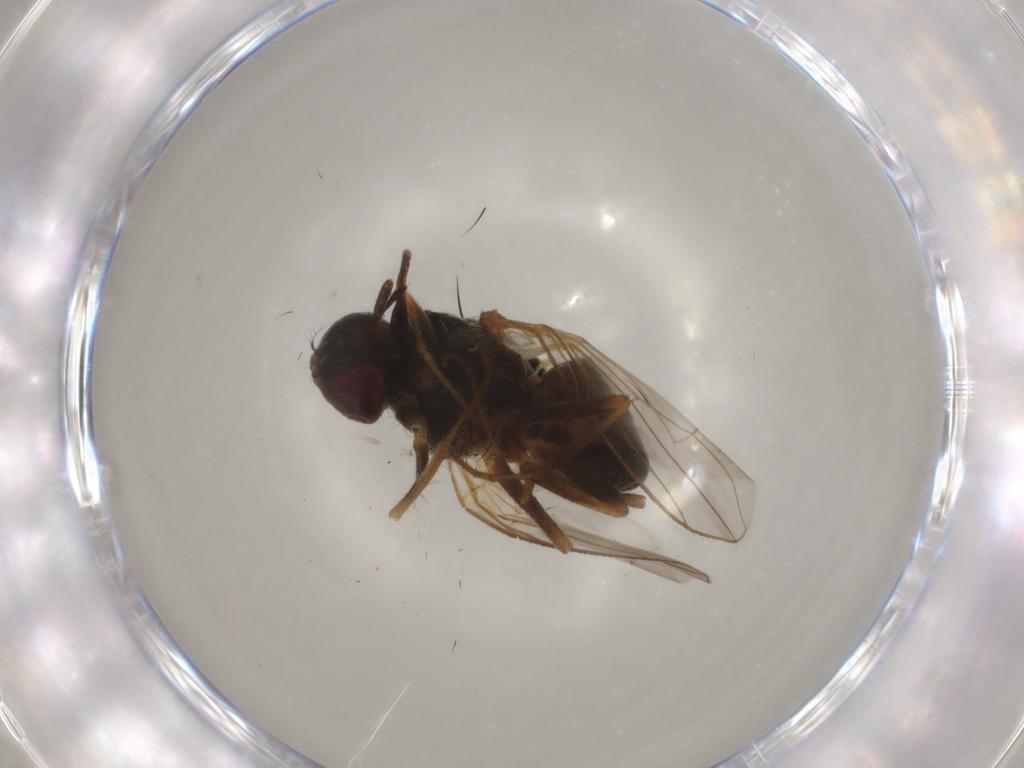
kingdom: Animalia
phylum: Arthropoda
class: Insecta
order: Diptera
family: Muscidae
